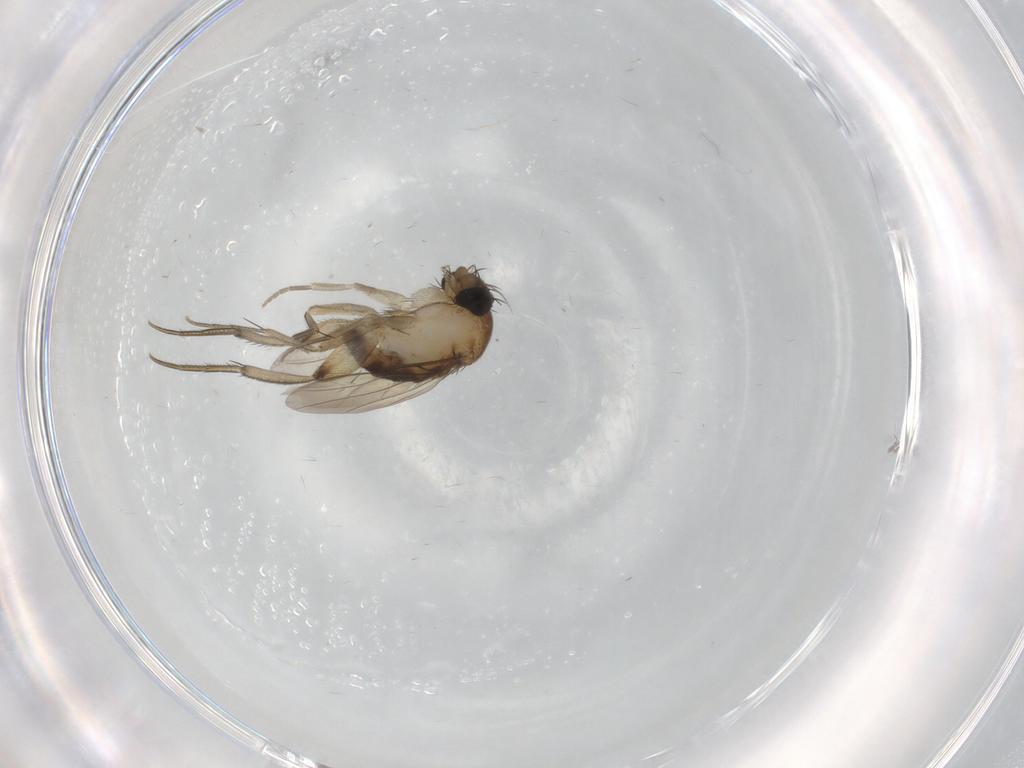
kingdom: Animalia
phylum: Arthropoda
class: Insecta
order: Diptera
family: Phoridae
